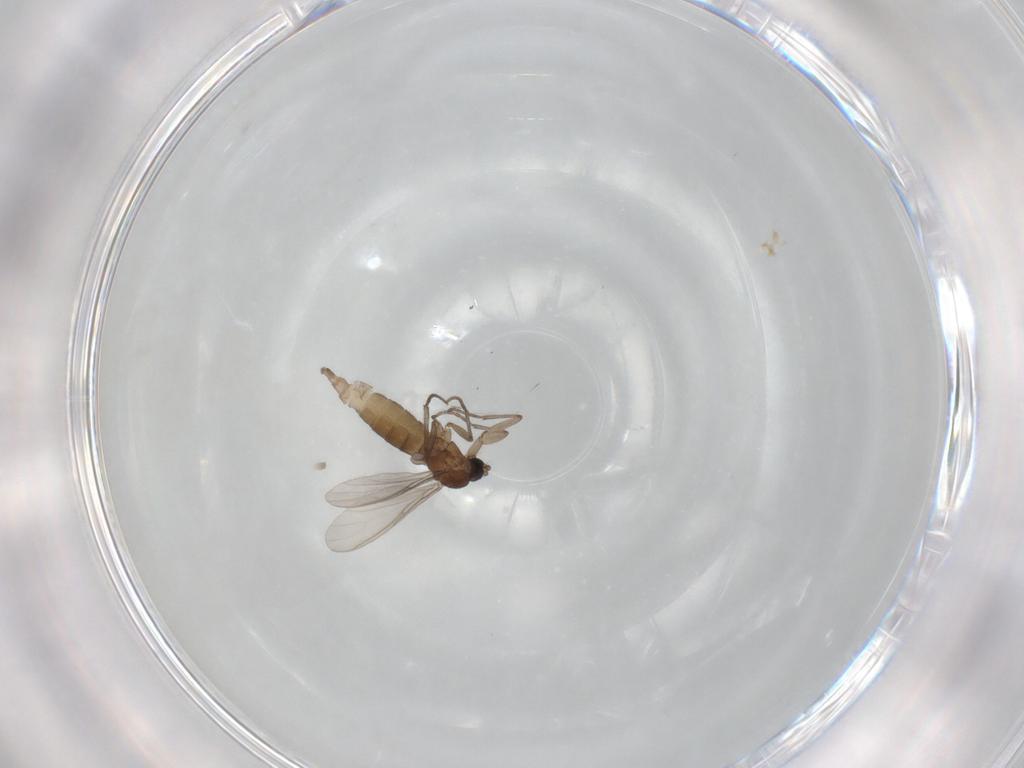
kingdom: Animalia
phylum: Arthropoda
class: Insecta
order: Diptera
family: Sciaridae
